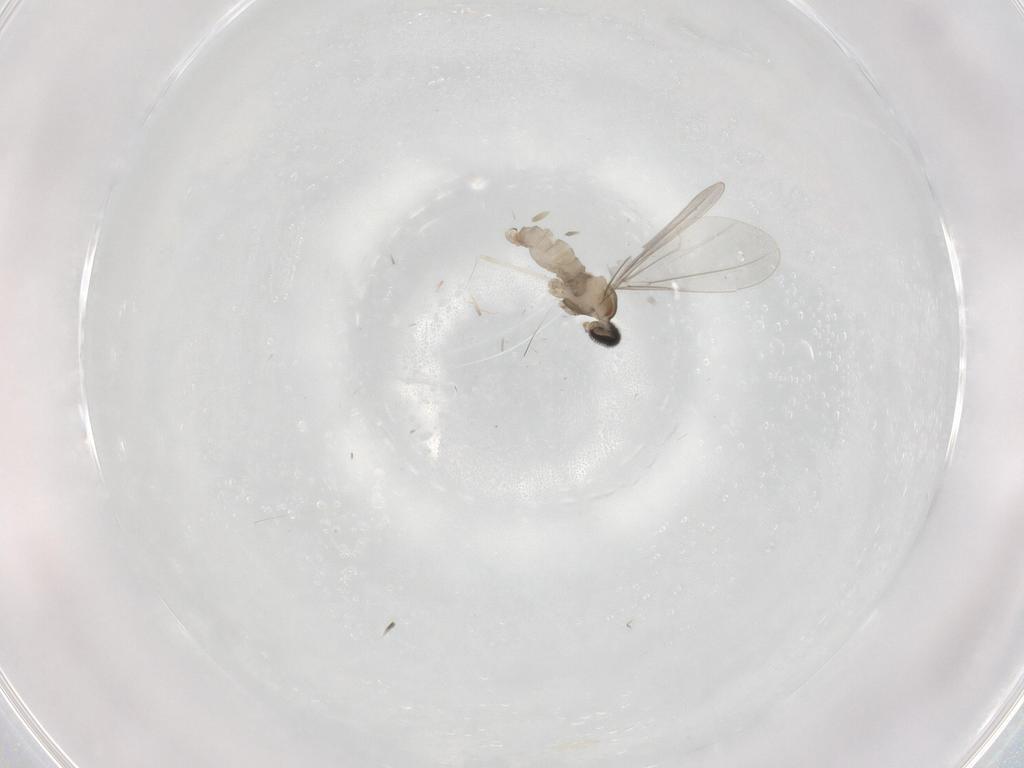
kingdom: Animalia
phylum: Arthropoda
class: Insecta
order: Diptera
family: Cecidomyiidae
